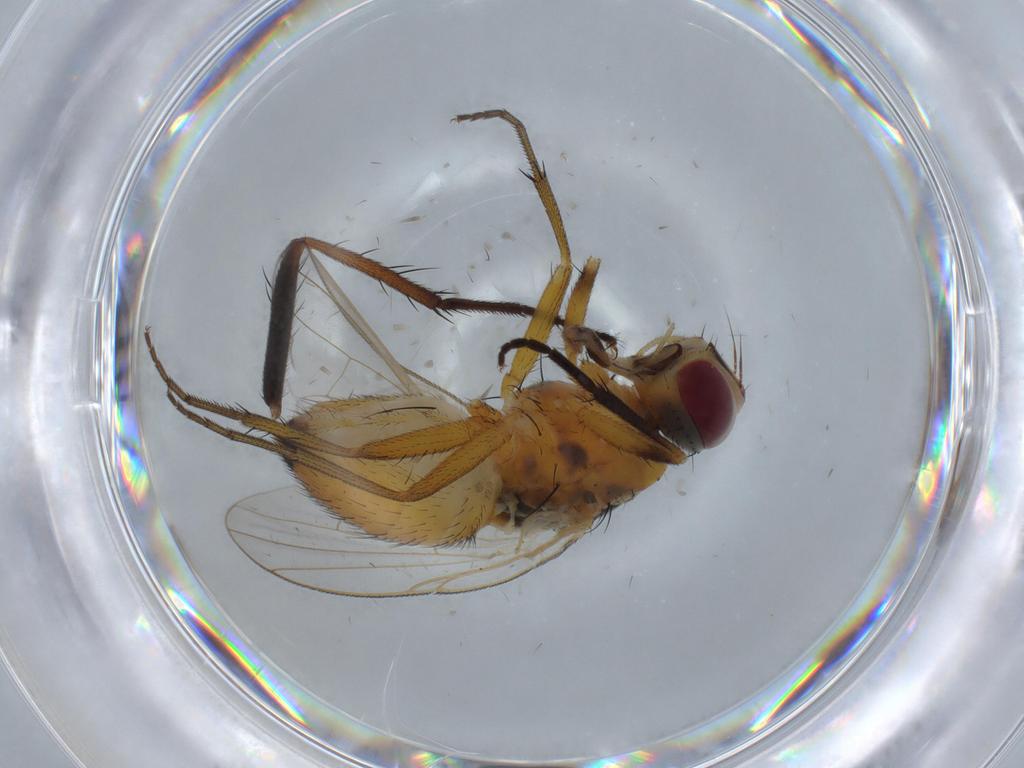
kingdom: Animalia
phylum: Arthropoda
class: Insecta
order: Diptera
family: Muscidae
